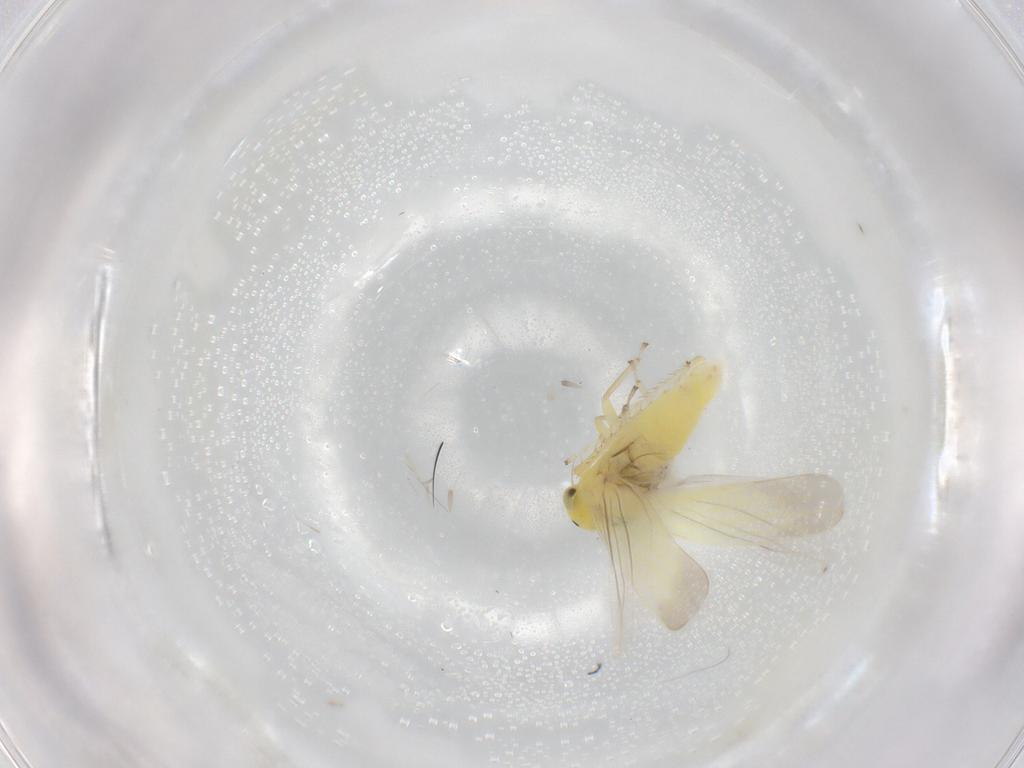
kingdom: Animalia
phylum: Arthropoda
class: Insecta
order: Hemiptera
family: Cicadellidae
